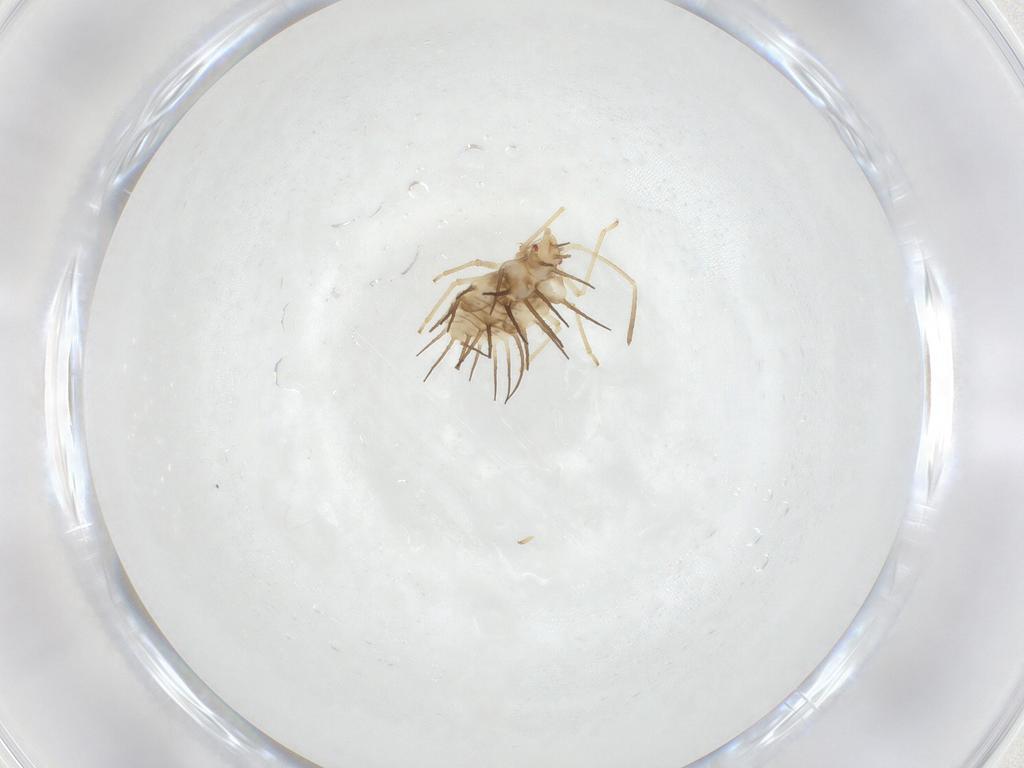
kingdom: Animalia
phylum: Arthropoda
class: Insecta
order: Hemiptera
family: Tingidae
